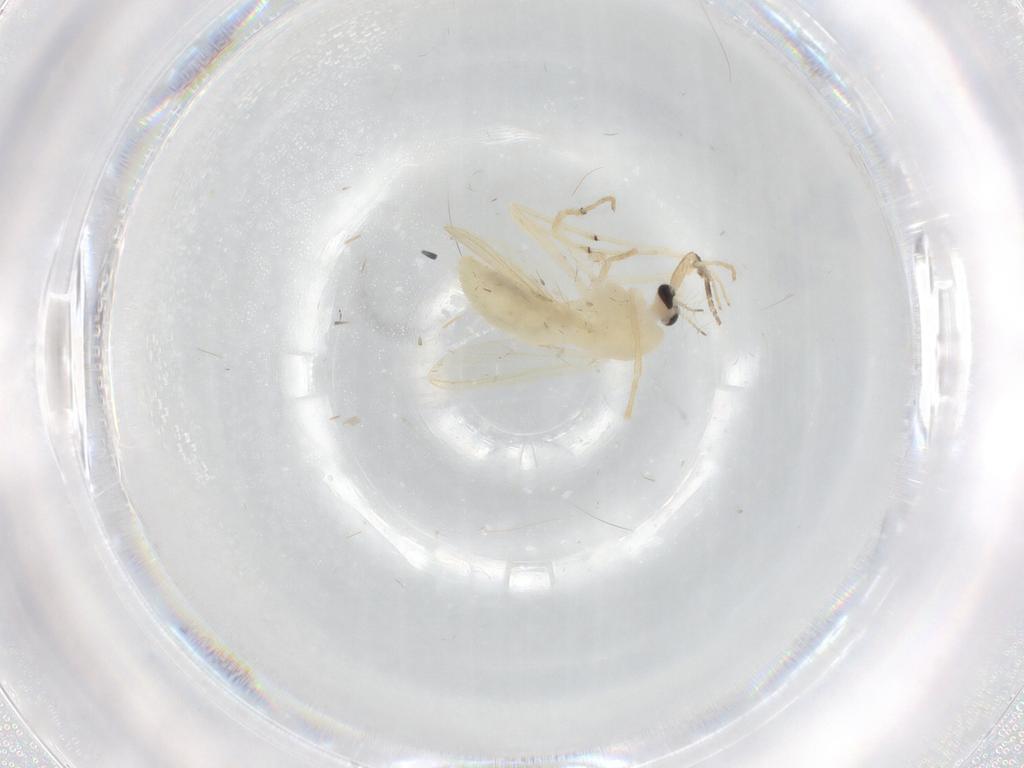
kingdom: Animalia
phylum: Arthropoda
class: Insecta
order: Diptera
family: Chironomidae
